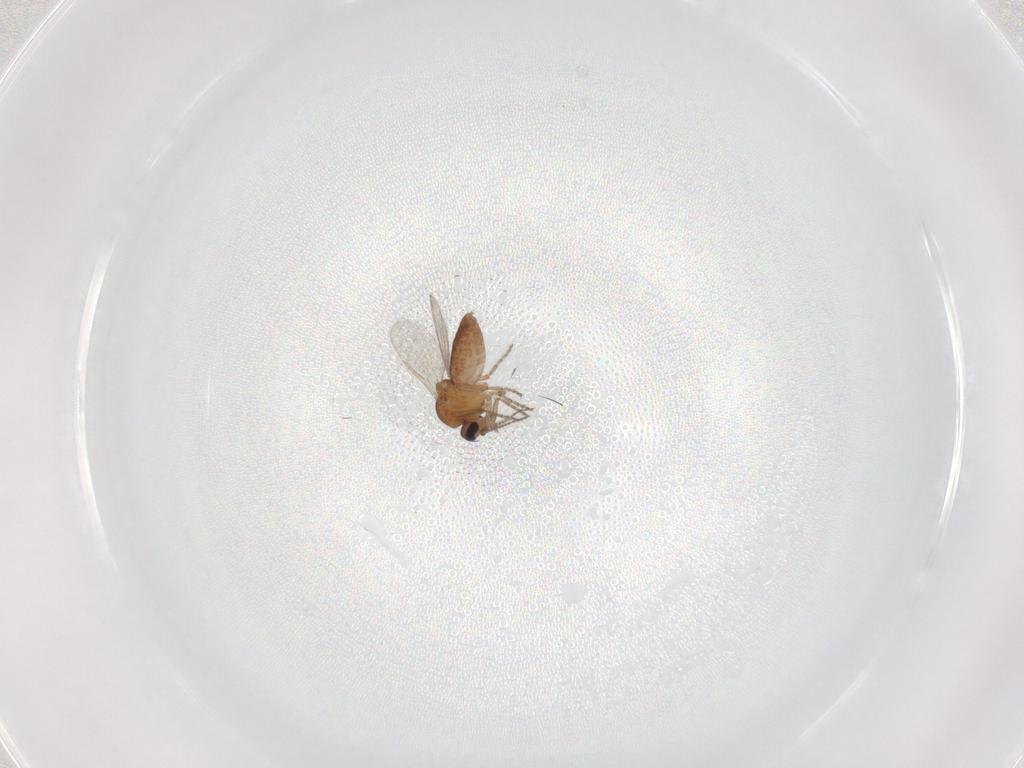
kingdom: Animalia
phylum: Arthropoda
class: Insecta
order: Diptera
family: Ceratopogonidae
